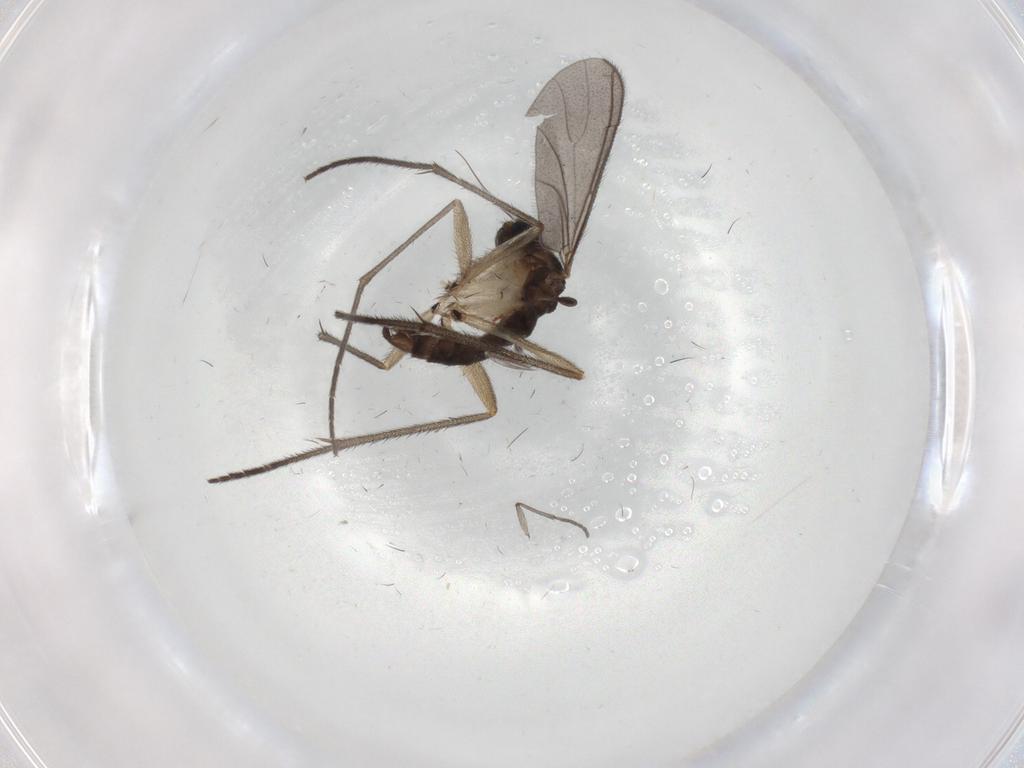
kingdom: Animalia
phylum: Arthropoda
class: Insecta
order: Diptera
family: Sciaridae
